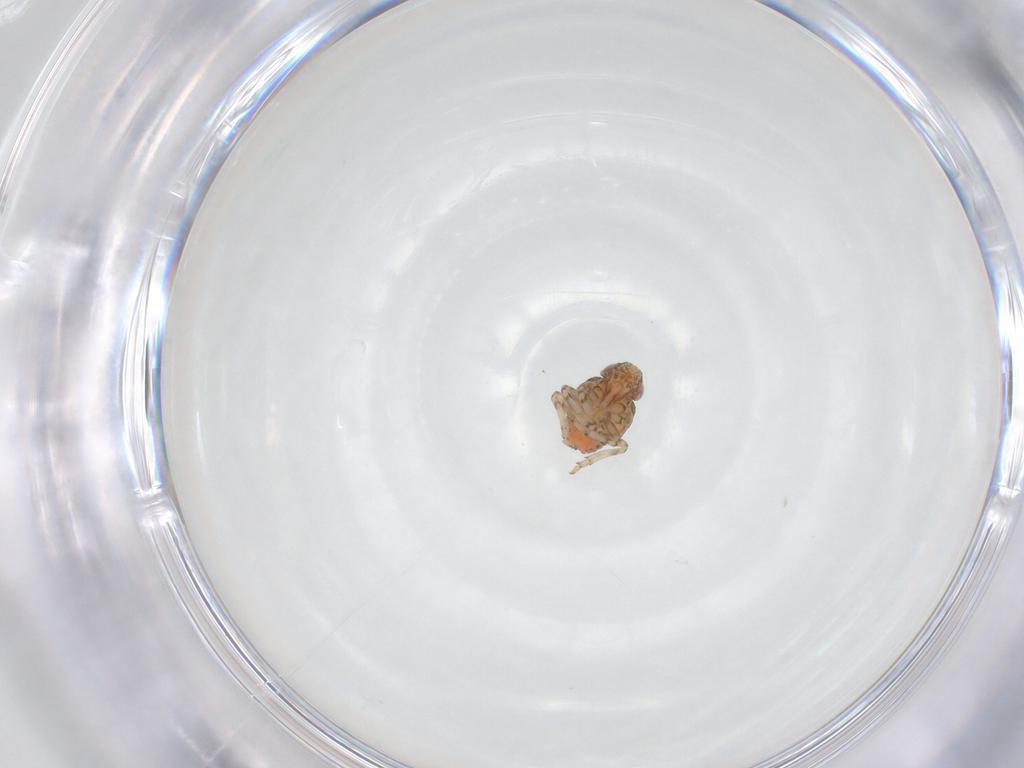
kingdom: Animalia
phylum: Arthropoda
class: Insecta
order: Hemiptera
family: Issidae
